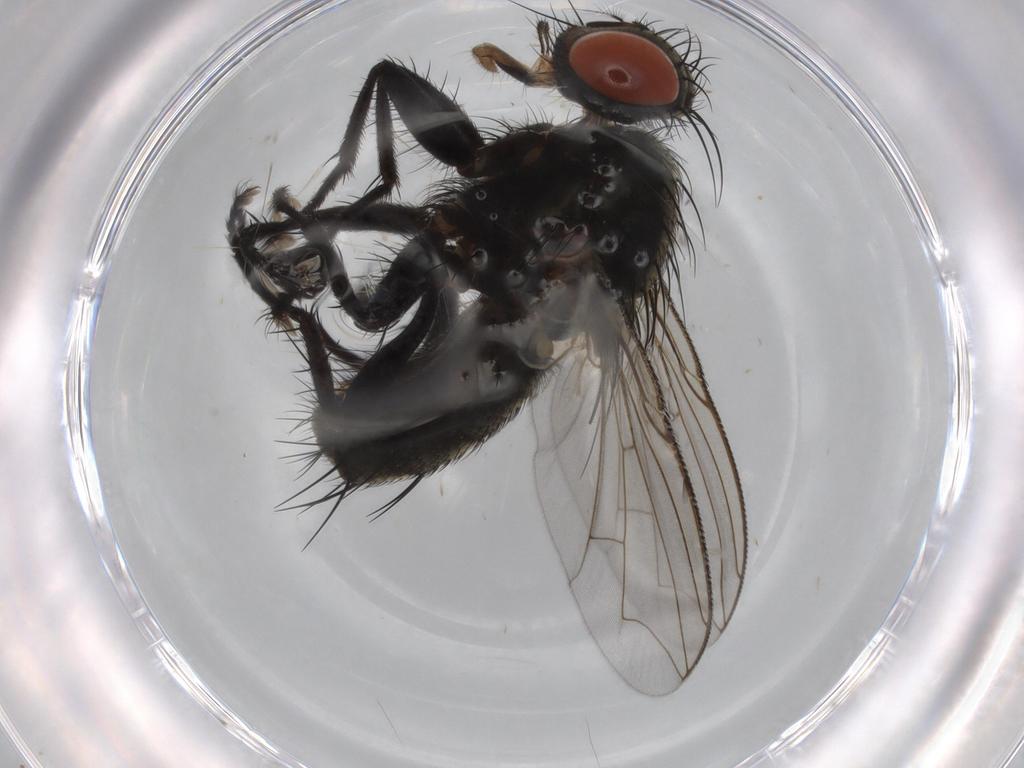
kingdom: Animalia
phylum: Arthropoda
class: Insecta
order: Diptera
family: Sarcophagidae
